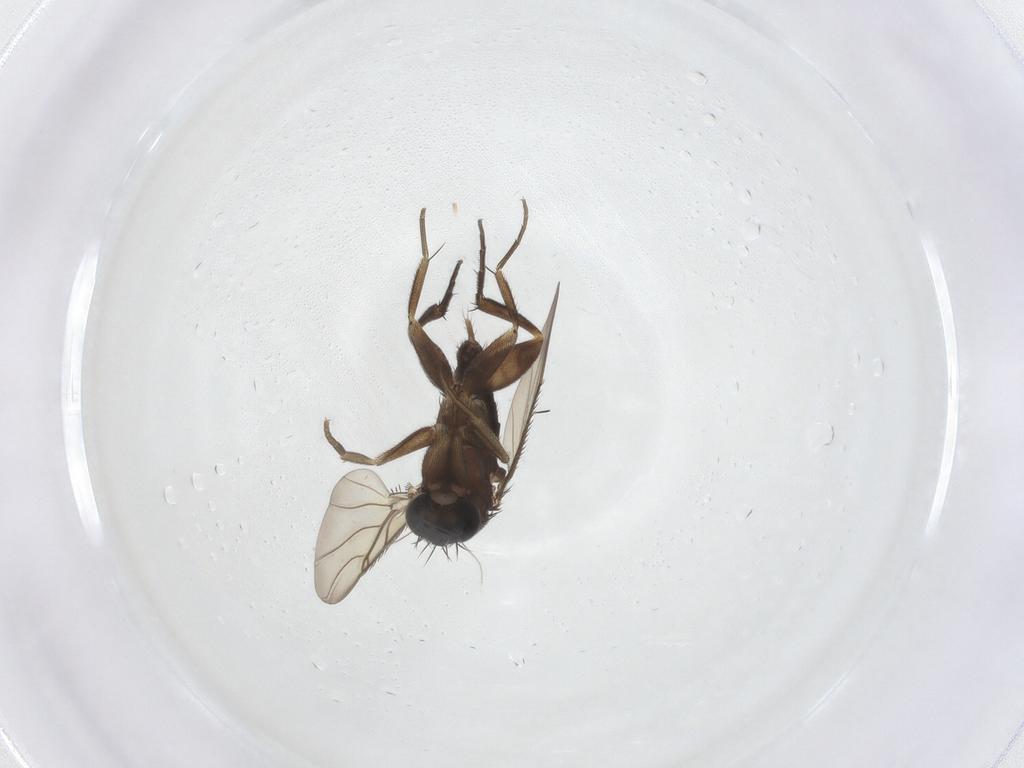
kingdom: Animalia
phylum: Arthropoda
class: Insecta
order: Diptera
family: Phoridae
